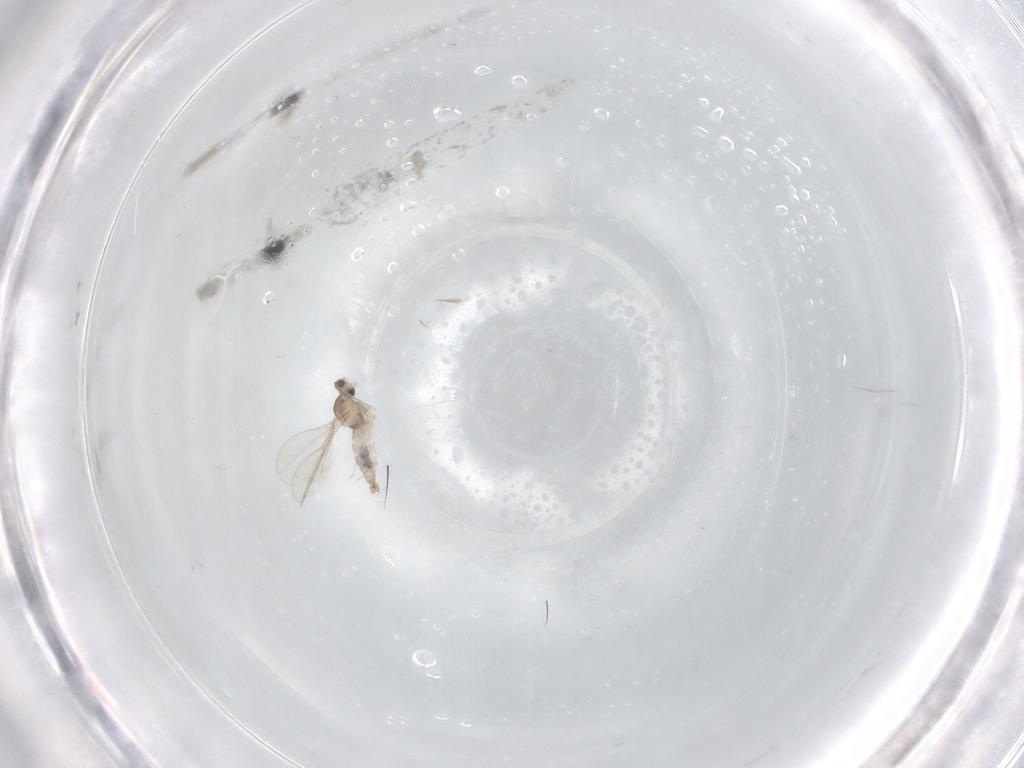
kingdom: Animalia
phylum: Arthropoda
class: Insecta
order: Diptera
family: Cecidomyiidae
